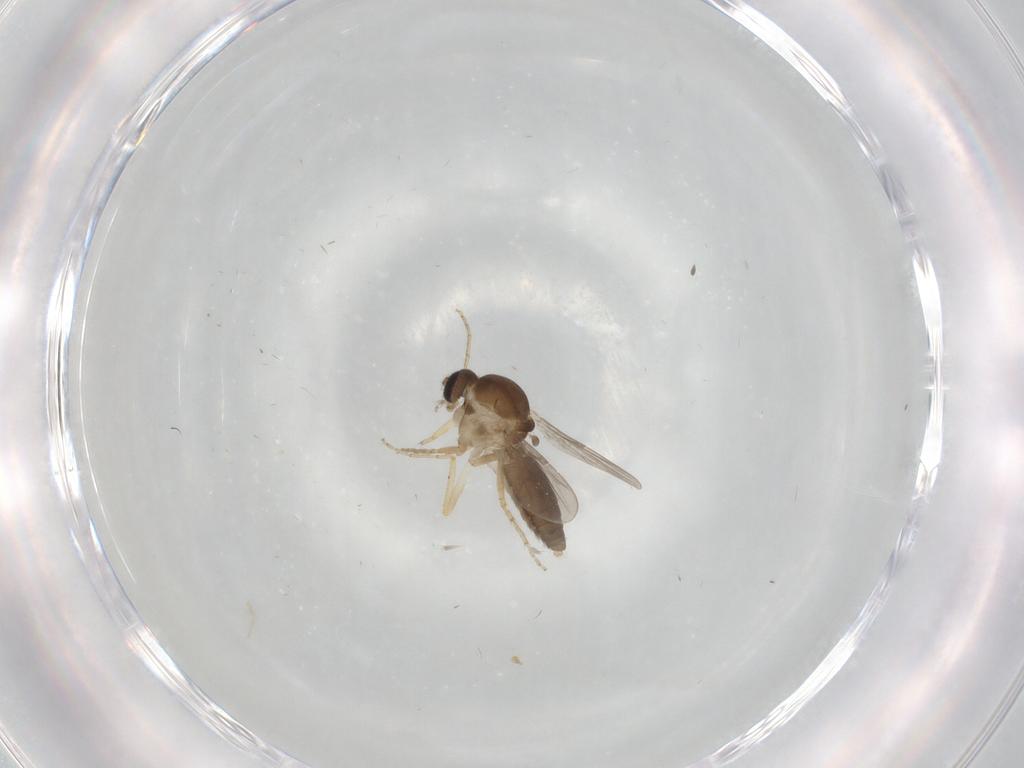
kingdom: Animalia
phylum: Arthropoda
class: Insecta
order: Diptera
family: Ceratopogonidae
